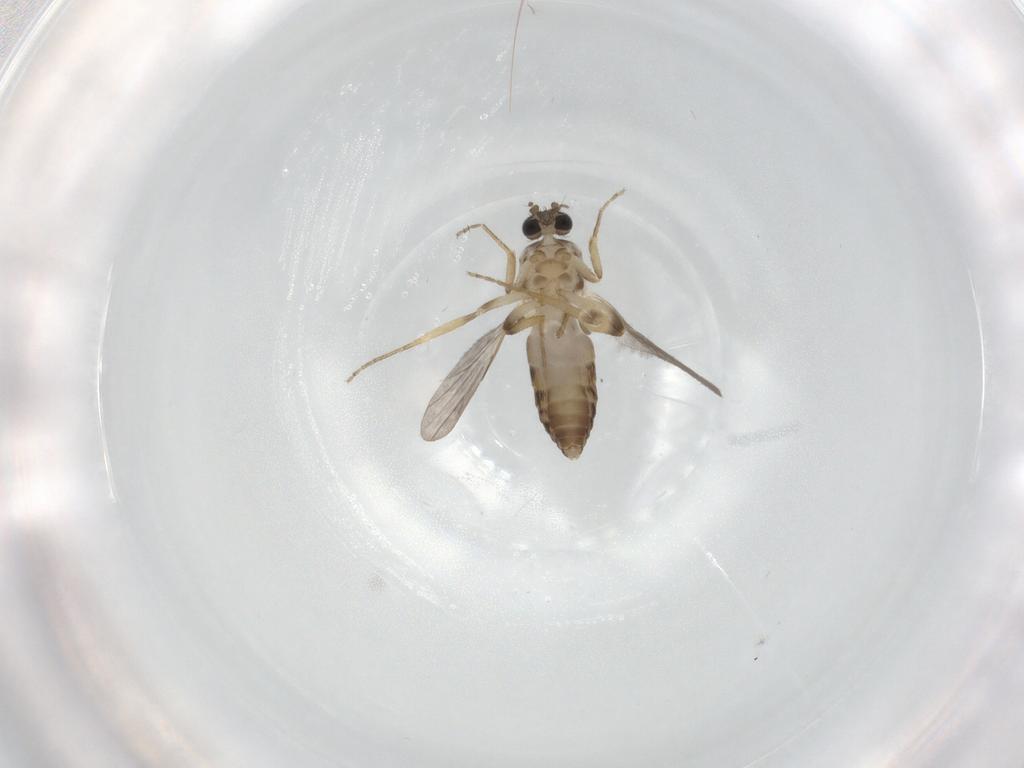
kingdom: Animalia
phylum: Arthropoda
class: Insecta
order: Diptera
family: Ceratopogonidae
